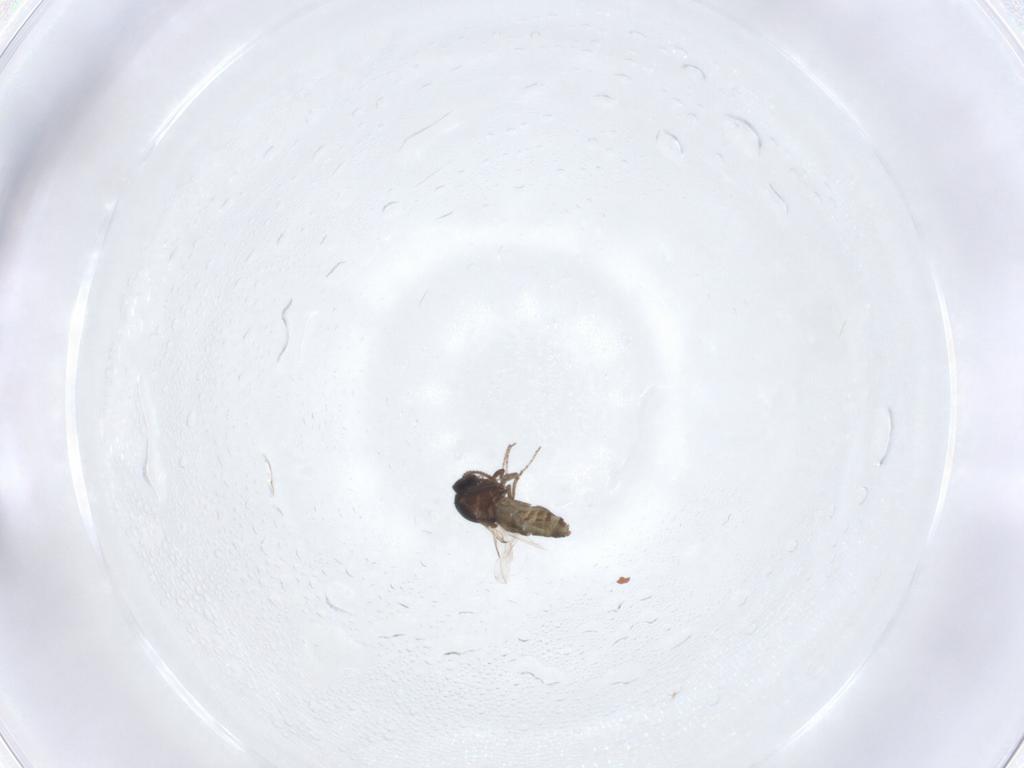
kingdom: Animalia
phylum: Arthropoda
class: Insecta
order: Diptera
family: Ceratopogonidae
